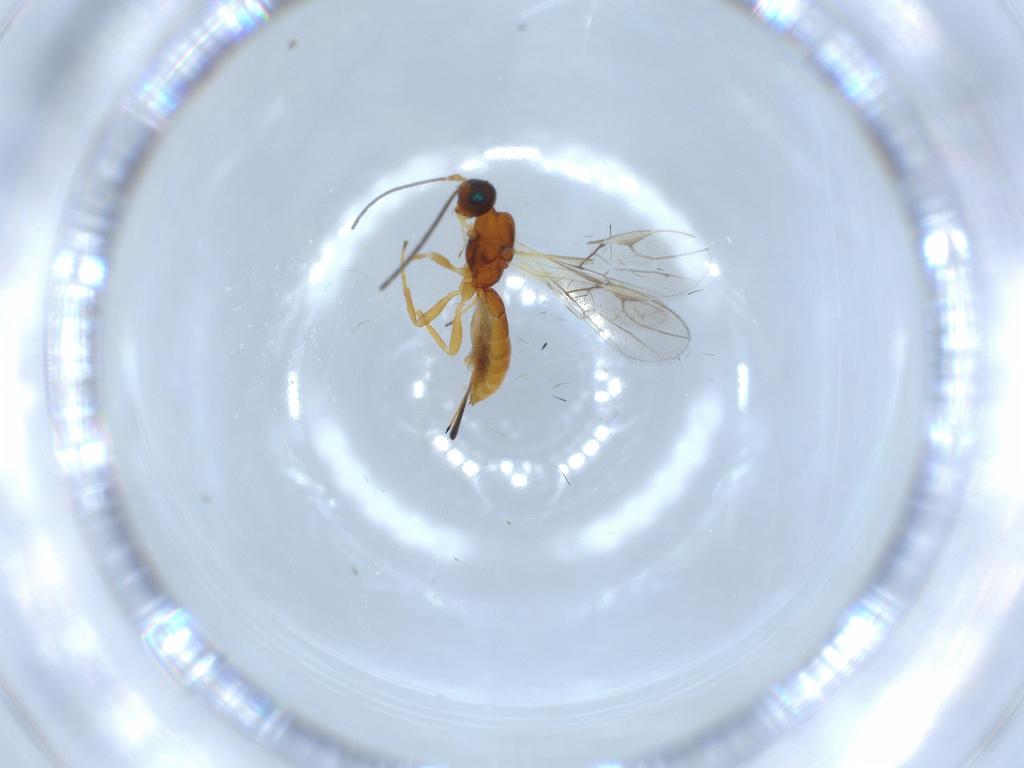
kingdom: Animalia
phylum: Arthropoda
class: Insecta
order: Hymenoptera
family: Braconidae
